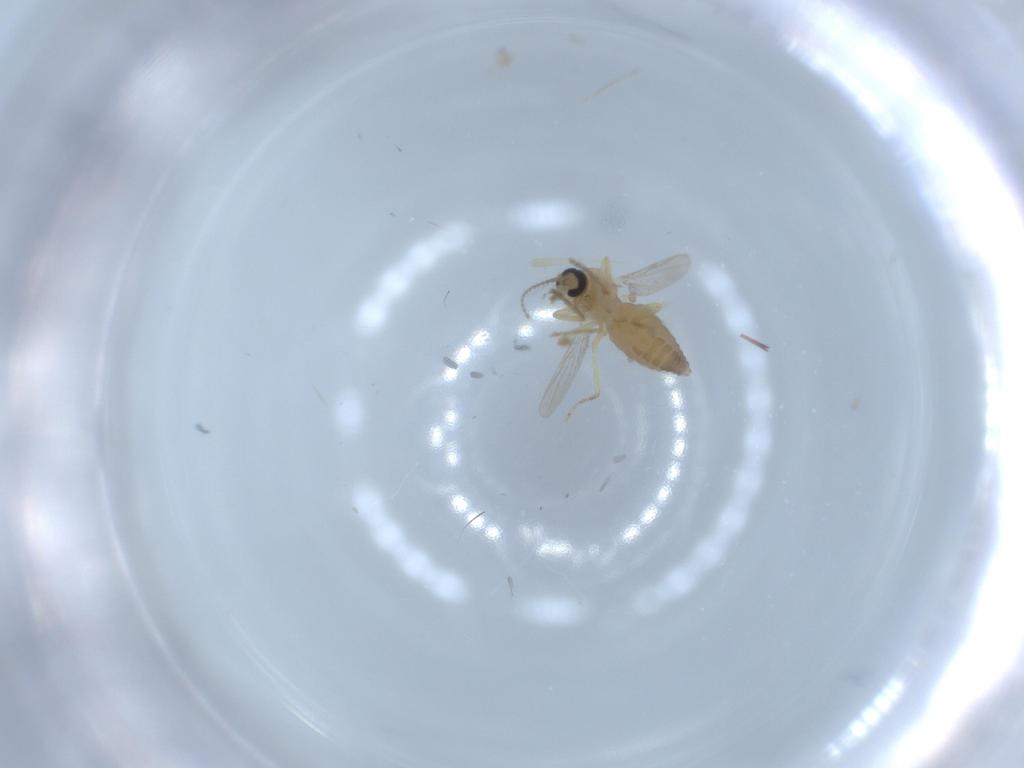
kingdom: Animalia
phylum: Arthropoda
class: Insecta
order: Diptera
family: Ceratopogonidae
